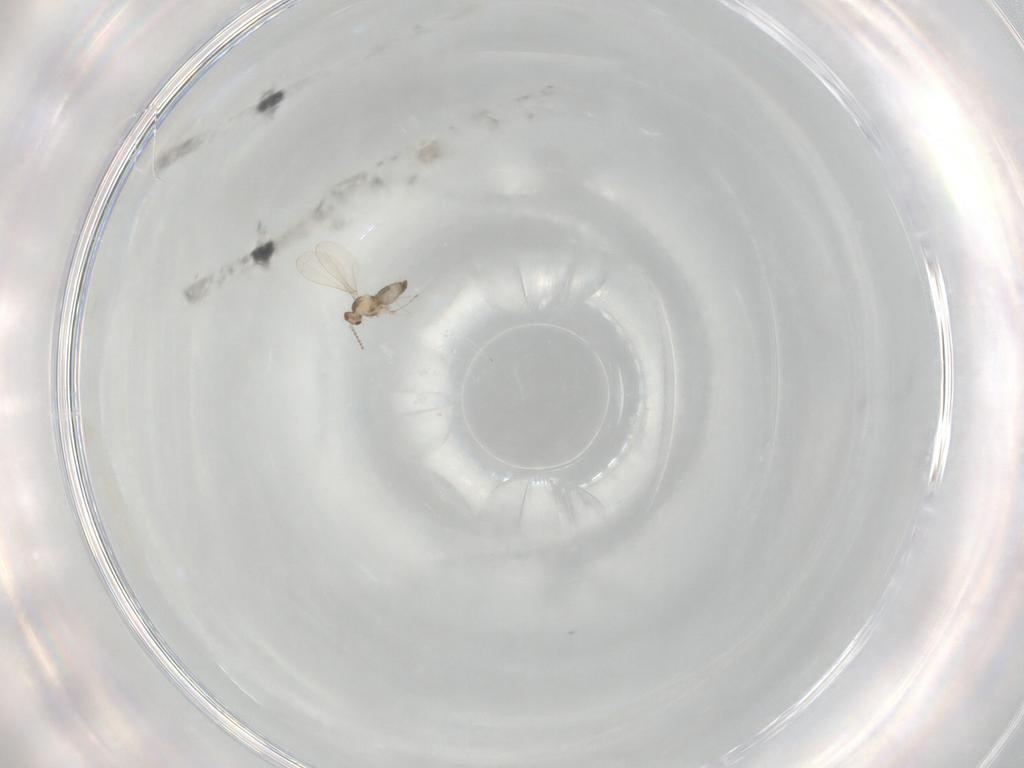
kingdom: Animalia
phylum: Arthropoda
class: Insecta
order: Diptera
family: Cecidomyiidae
